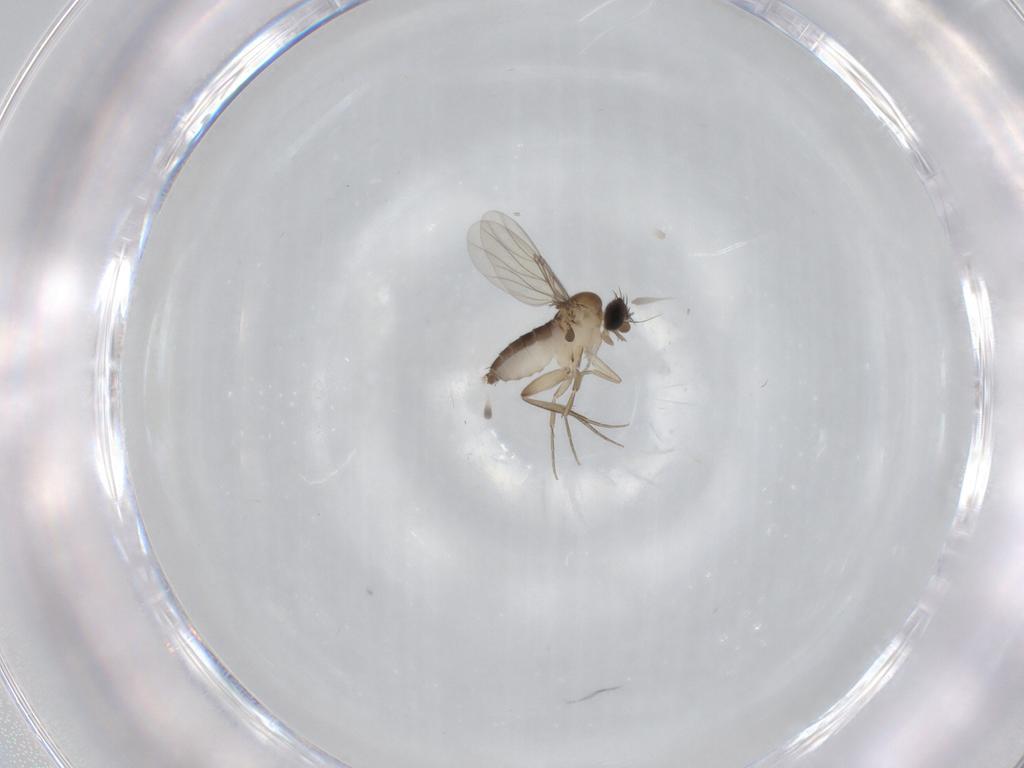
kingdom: Animalia
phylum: Arthropoda
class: Insecta
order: Diptera
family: Phoridae
